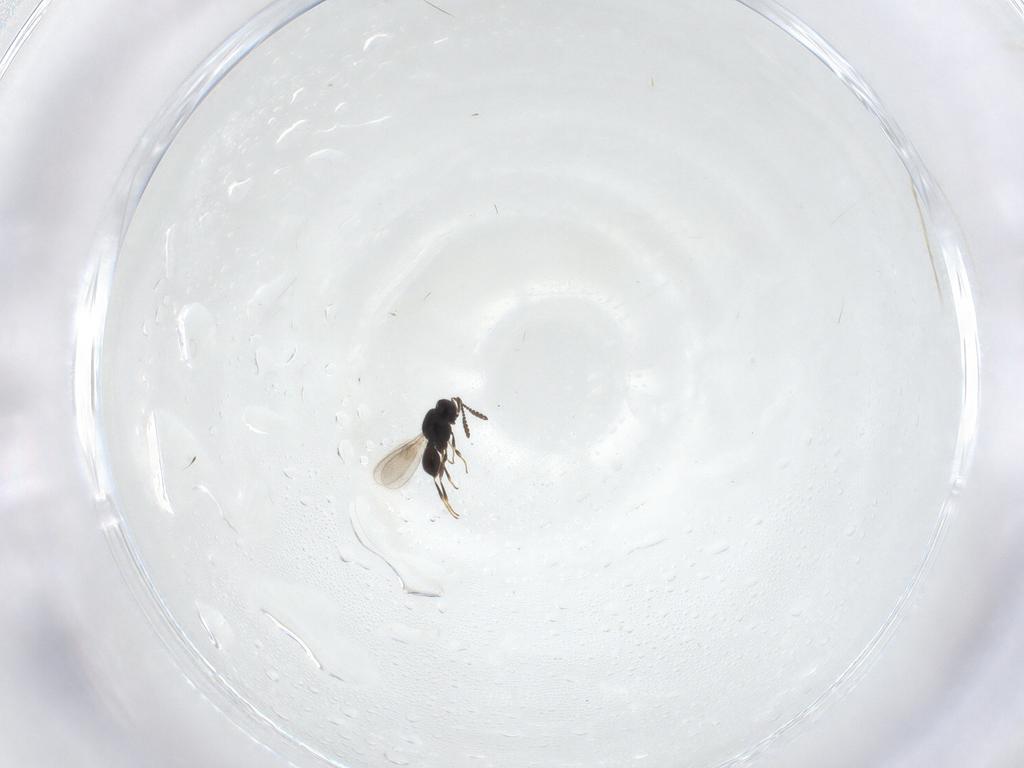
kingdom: Animalia
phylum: Arthropoda
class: Insecta
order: Hymenoptera
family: Scelionidae
